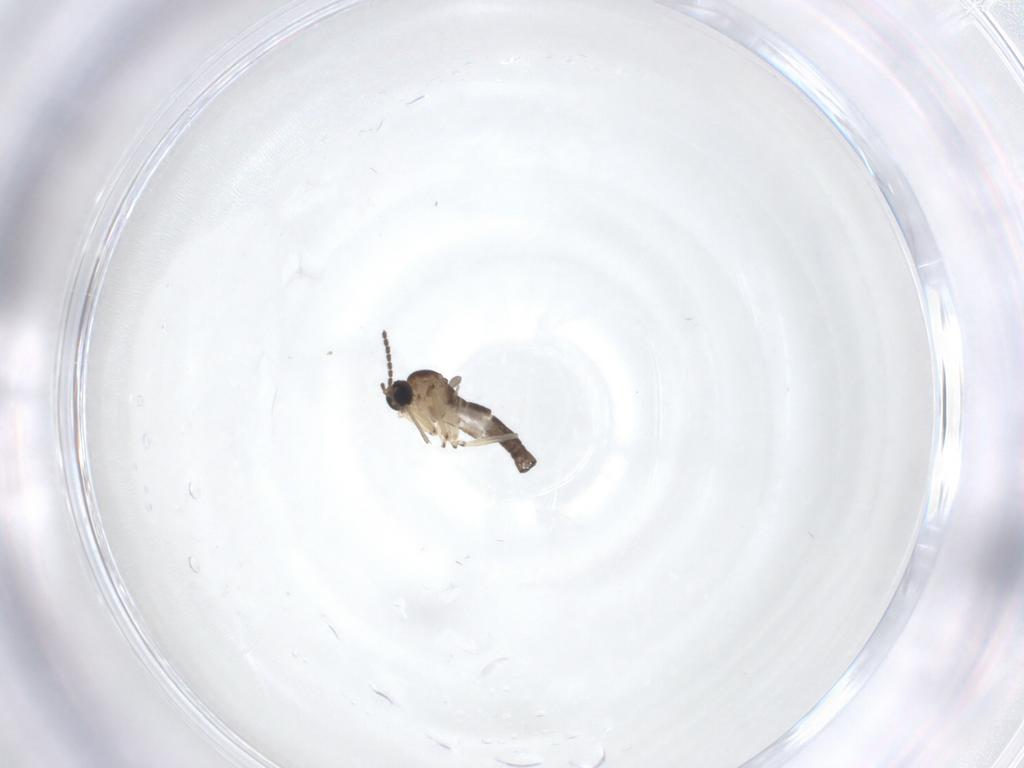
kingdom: Animalia
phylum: Arthropoda
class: Insecta
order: Diptera
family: Sciaridae
